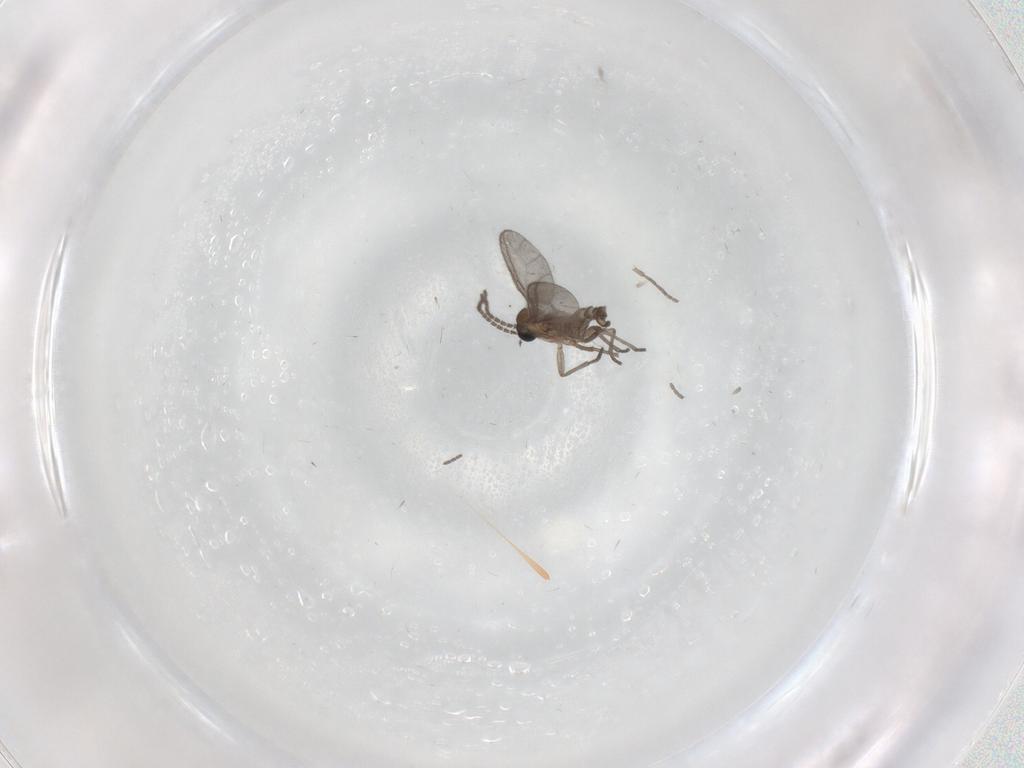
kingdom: Animalia
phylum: Arthropoda
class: Insecta
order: Diptera
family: Sciaridae
